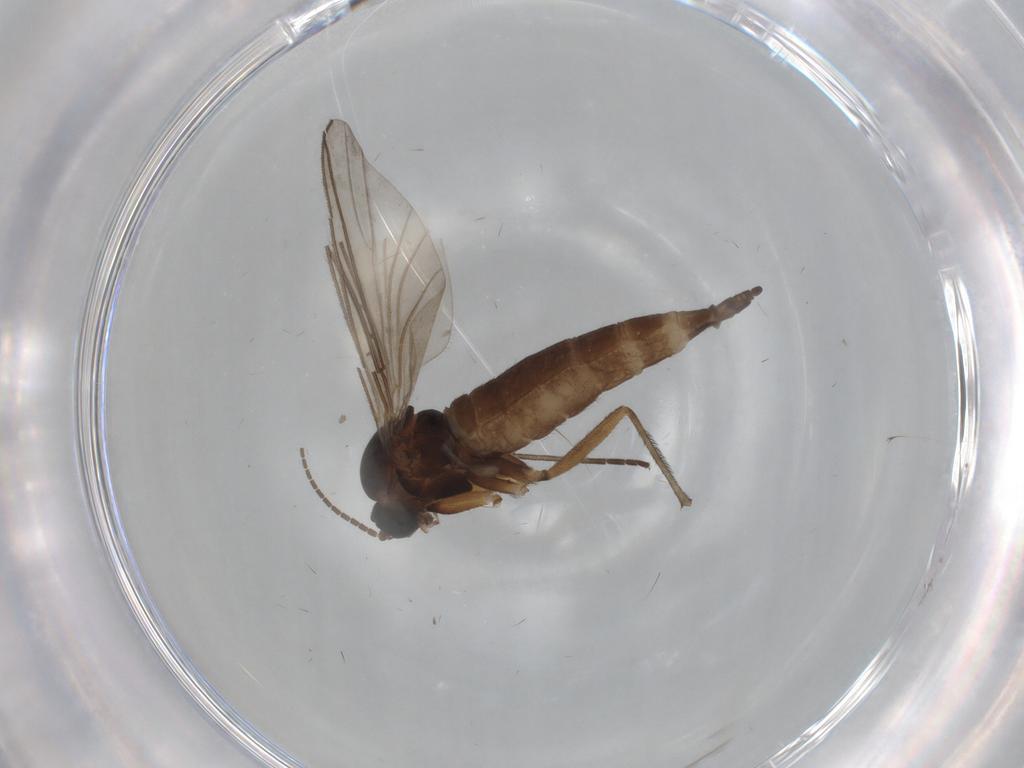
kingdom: Animalia
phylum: Arthropoda
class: Insecta
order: Diptera
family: Sciaridae
